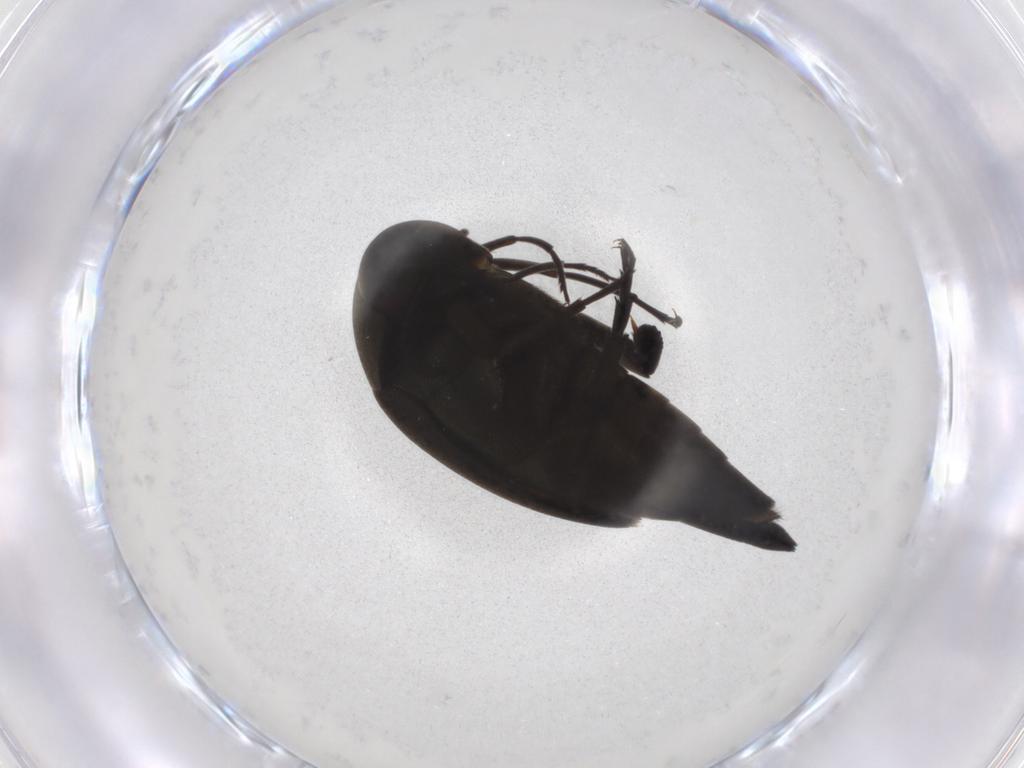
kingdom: Animalia
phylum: Arthropoda
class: Insecta
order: Coleoptera
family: Mordellidae
